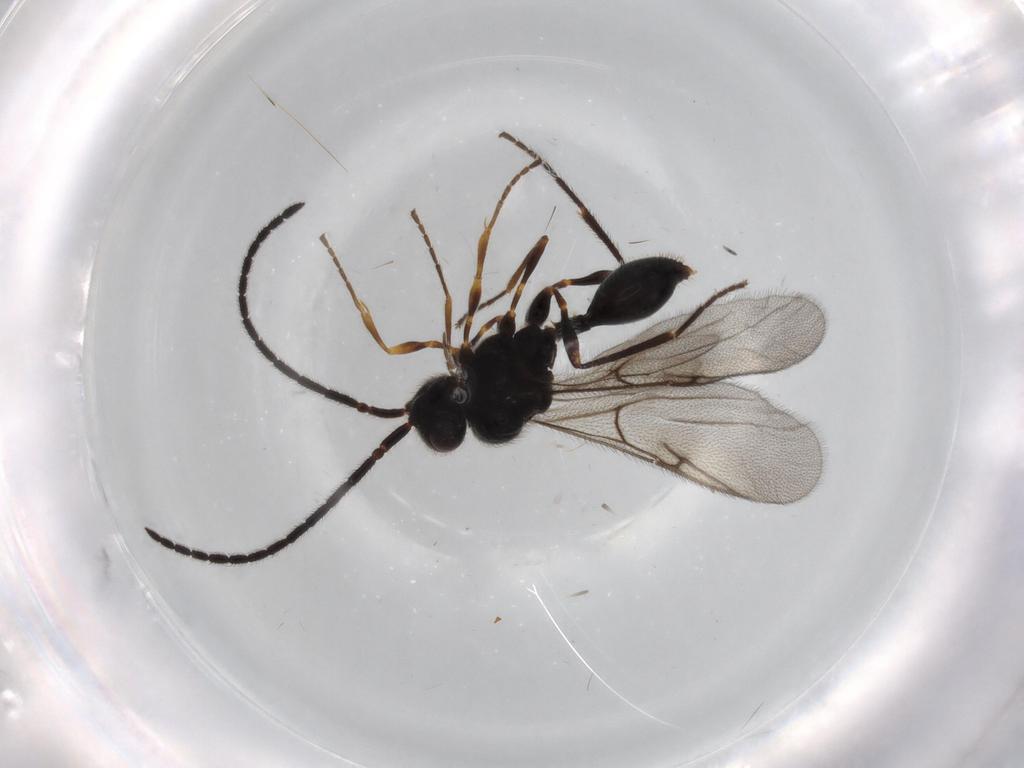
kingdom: Animalia
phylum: Arthropoda
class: Insecta
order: Hymenoptera
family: Diapriidae
